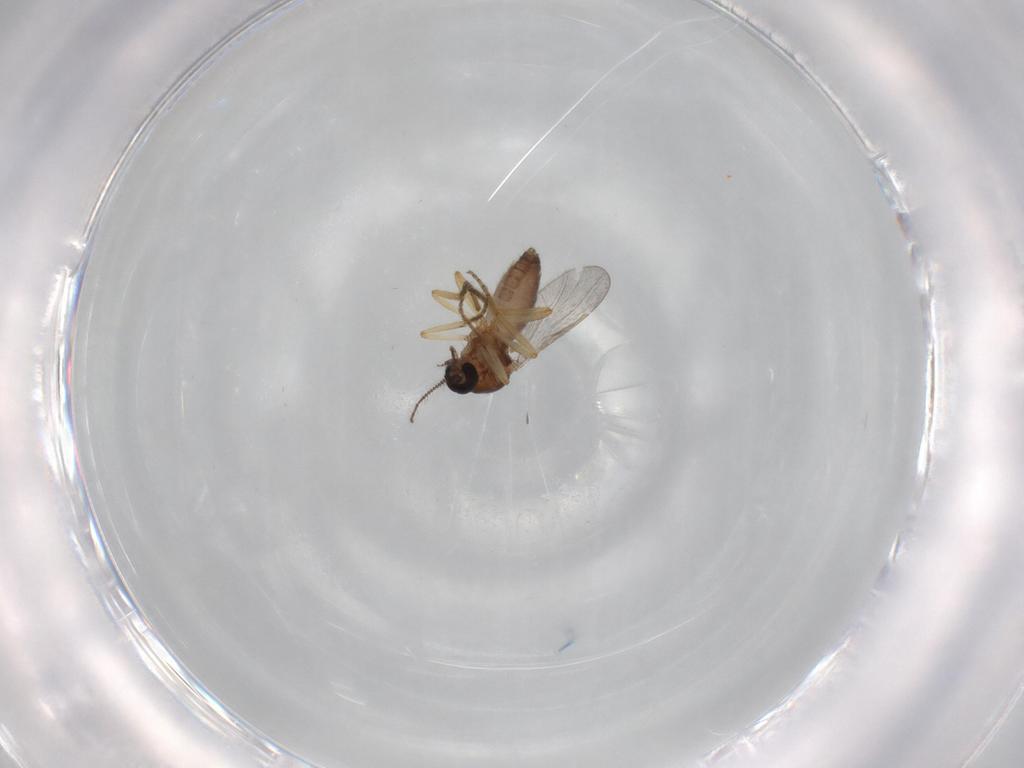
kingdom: Animalia
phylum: Arthropoda
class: Insecta
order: Diptera
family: Ceratopogonidae
